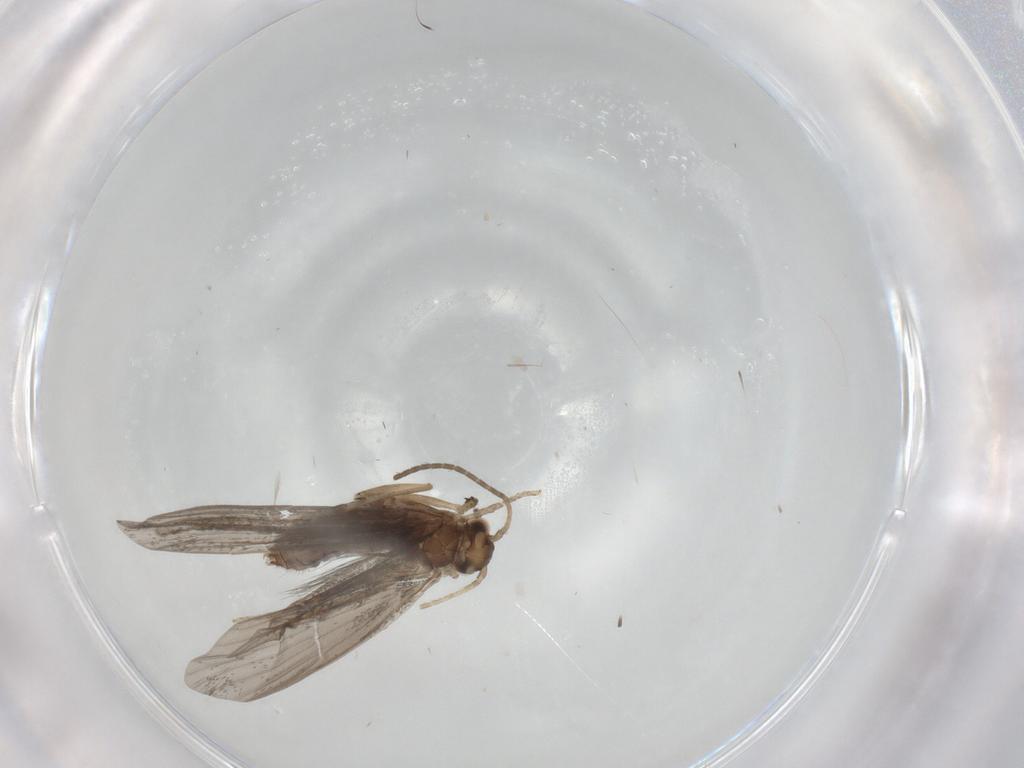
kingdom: Animalia
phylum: Arthropoda
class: Insecta
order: Trichoptera
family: Glossosomatidae
